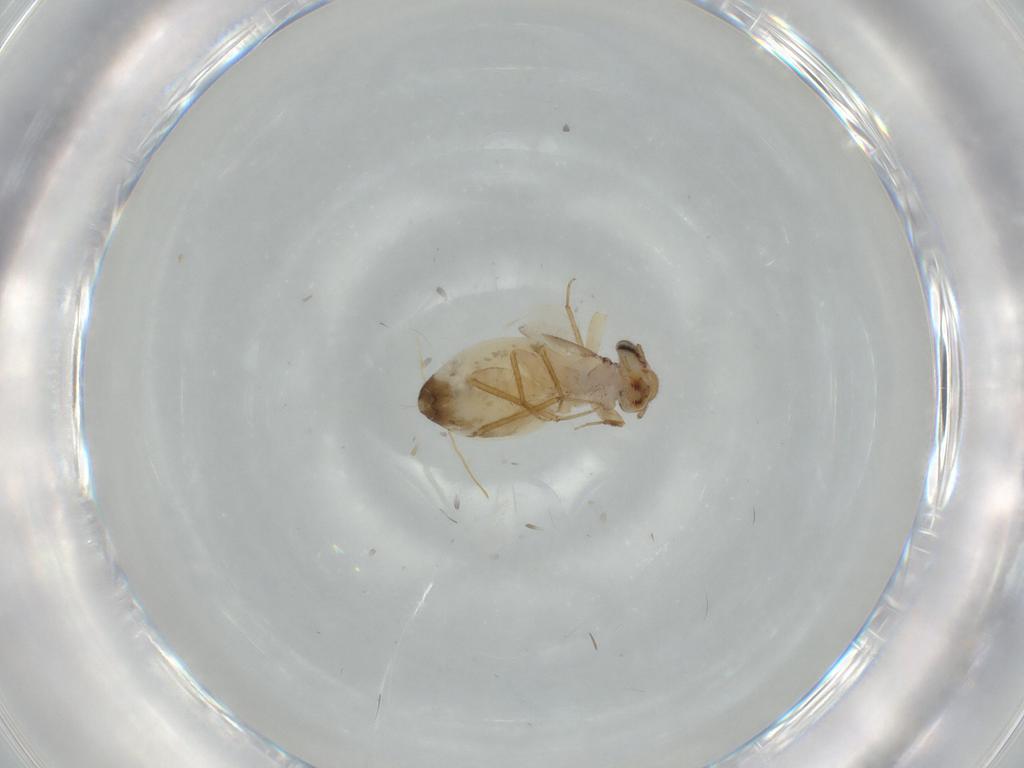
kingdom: Animalia
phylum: Arthropoda
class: Insecta
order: Psocodea
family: Lepidopsocidae
